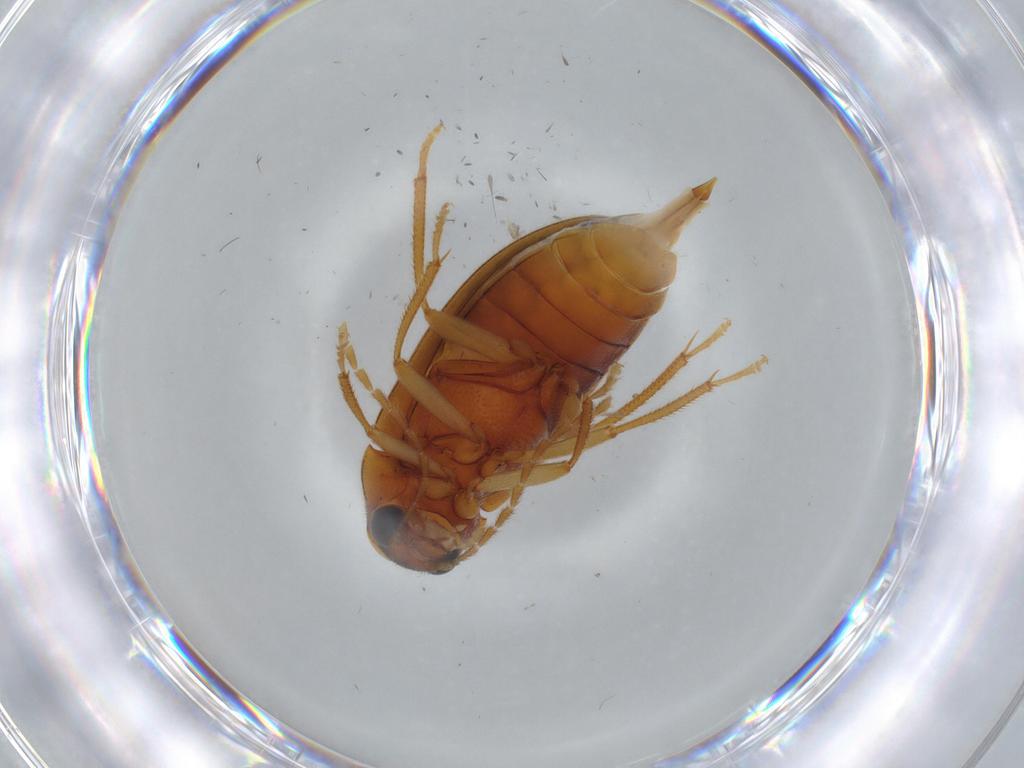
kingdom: Animalia
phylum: Arthropoda
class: Insecta
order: Coleoptera
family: Ptilodactylidae
